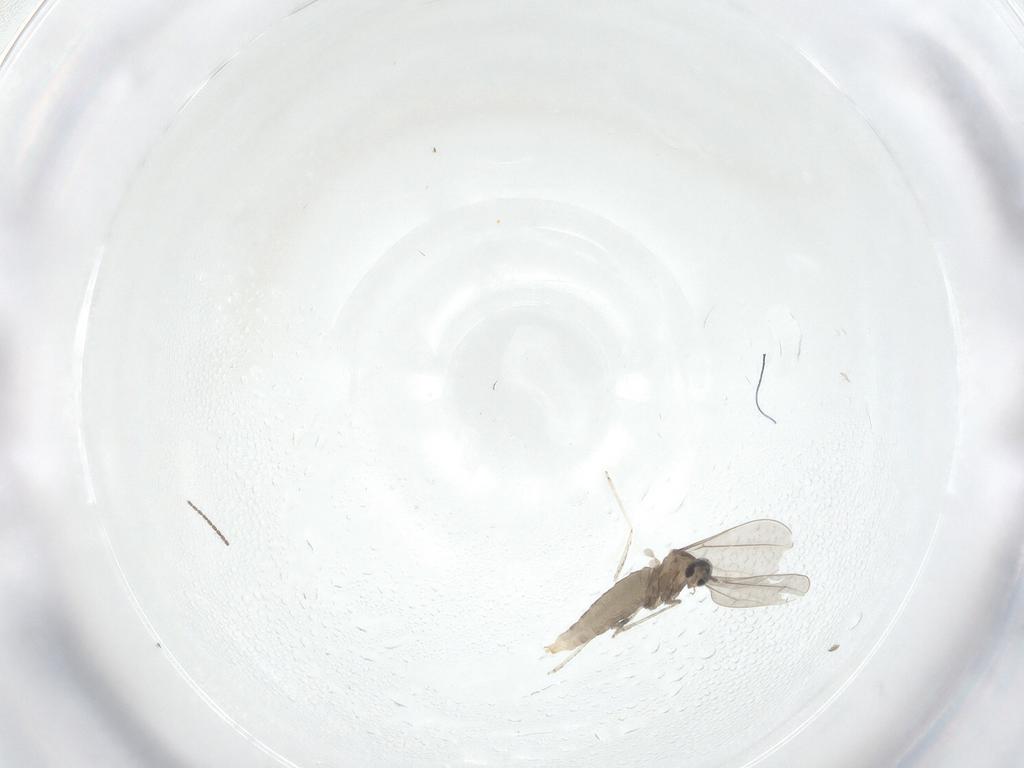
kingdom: Animalia
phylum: Arthropoda
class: Insecta
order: Diptera
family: Cecidomyiidae
